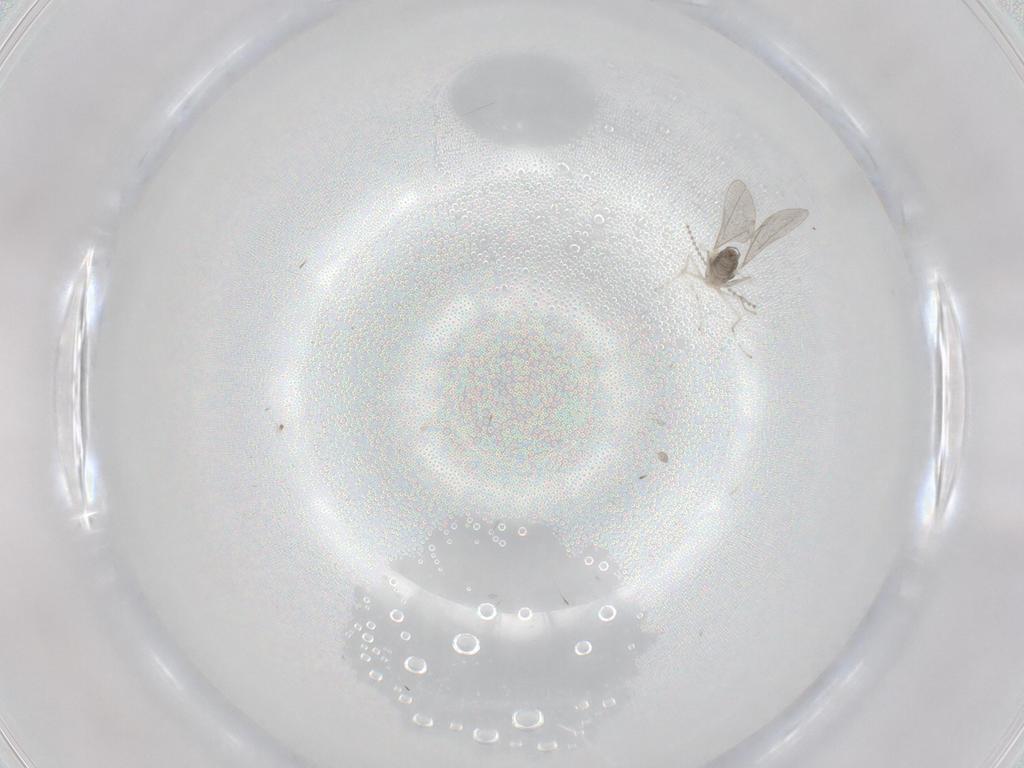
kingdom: Animalia
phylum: Arthropoda
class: Insecta
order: Diptera
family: Cecidomyiidae
